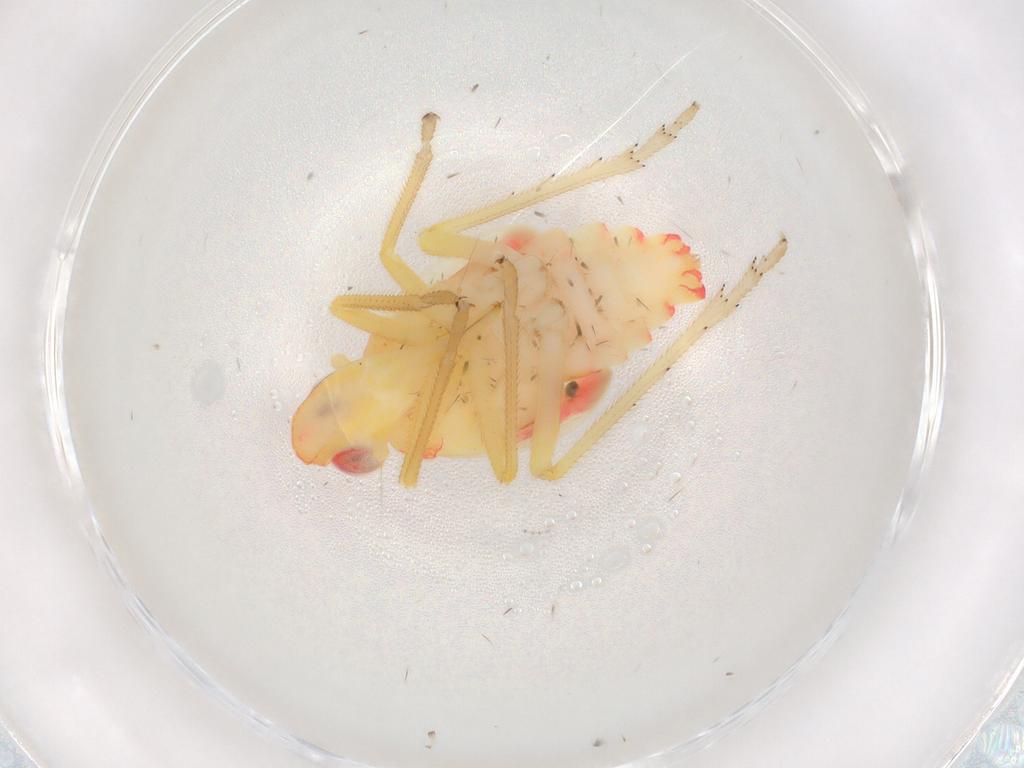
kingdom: Animalia
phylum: Arthropoda
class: Insecta
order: Hemiptera
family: Tropiduchidae
